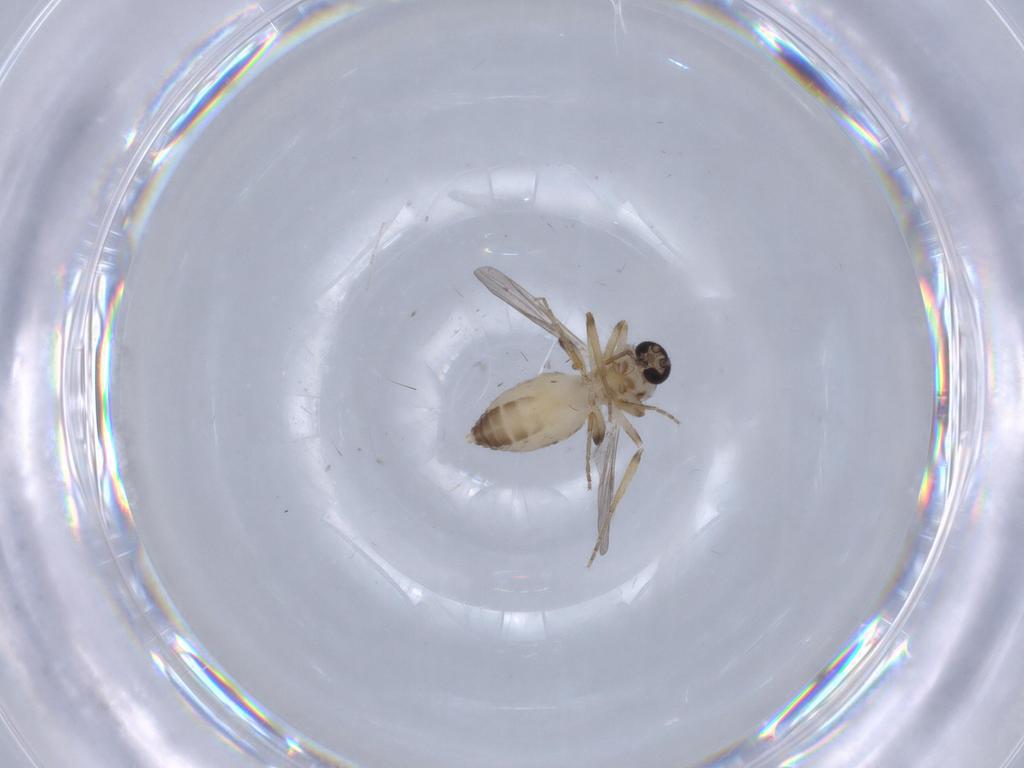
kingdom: Animalia
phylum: Arthropoda
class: Insecta
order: Diptera
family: Ceratopogonidae
